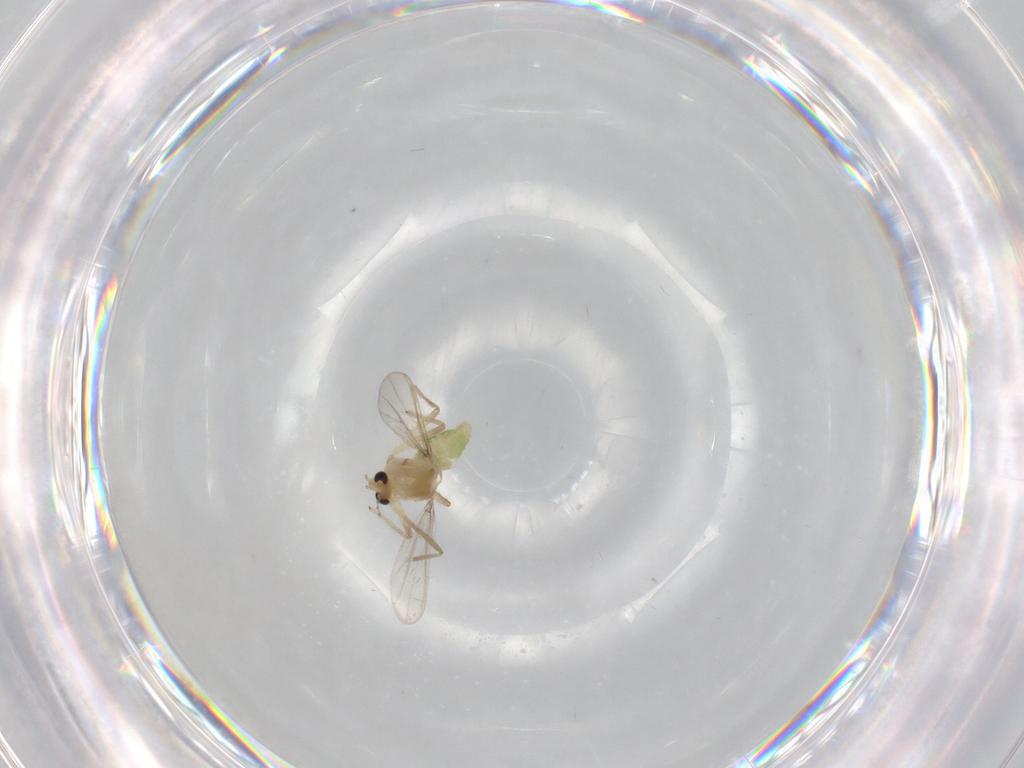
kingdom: Animalia
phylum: Arthropoda
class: Insecta
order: Diptera
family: Chironomidae
